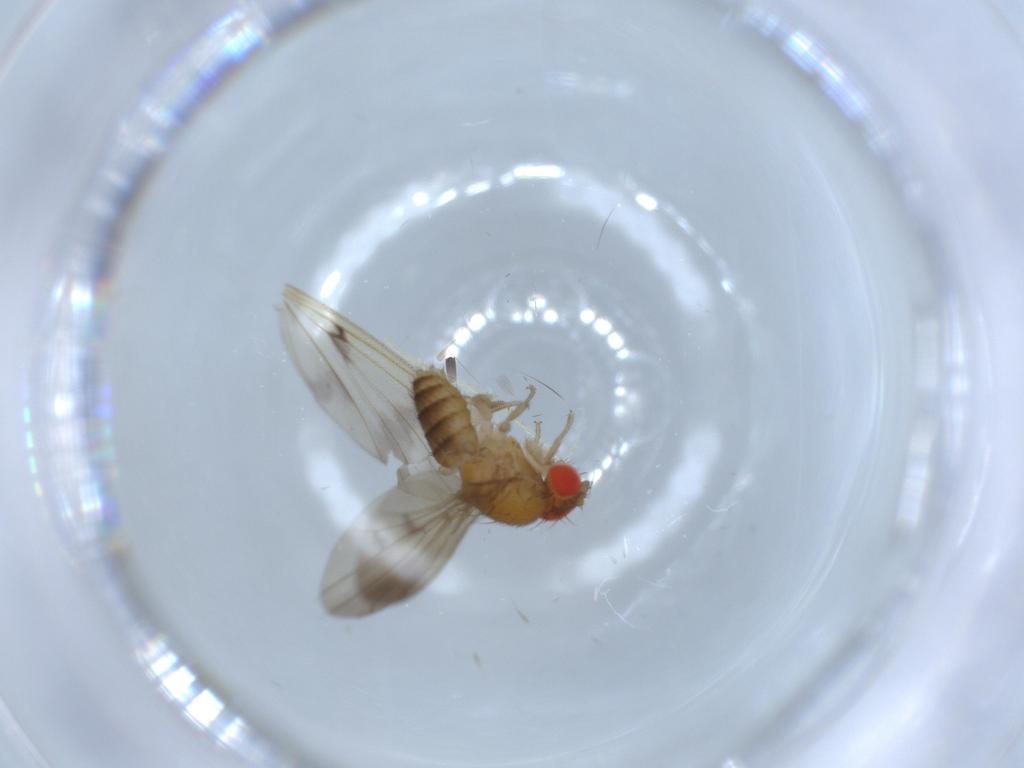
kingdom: Animalia
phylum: Arthropoda
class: Insecta
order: Diptera
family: Drosophilidae
